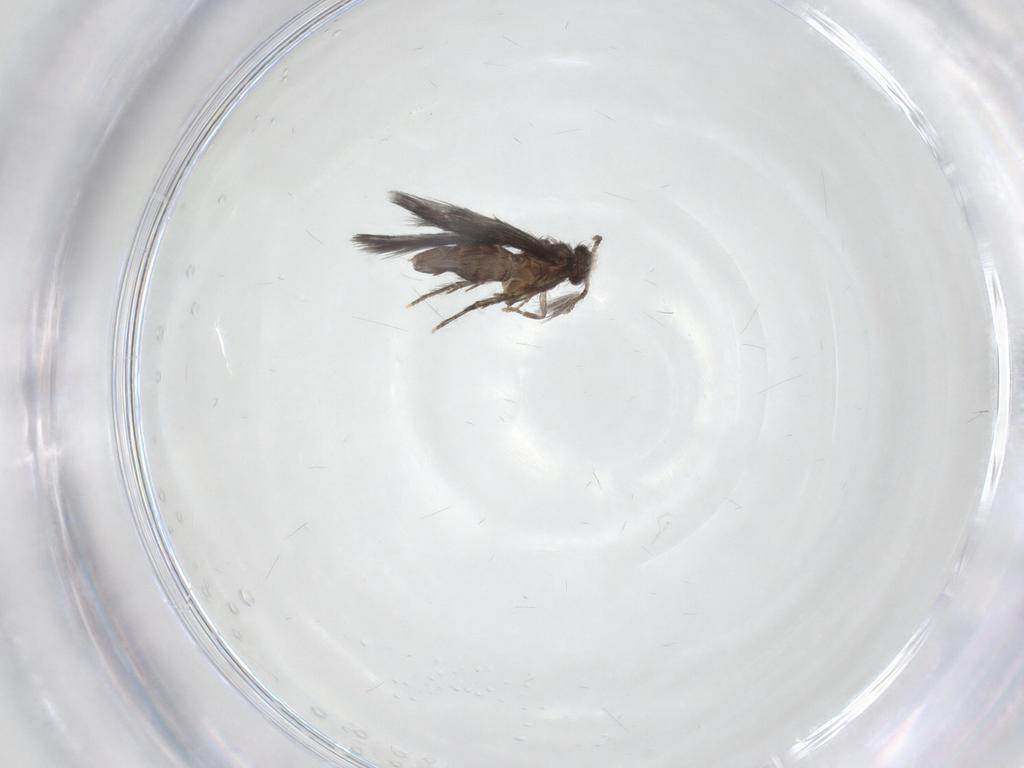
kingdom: Animalia
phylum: Arthropoda
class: Insecta
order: Trichoptera
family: Hydroptilidae
